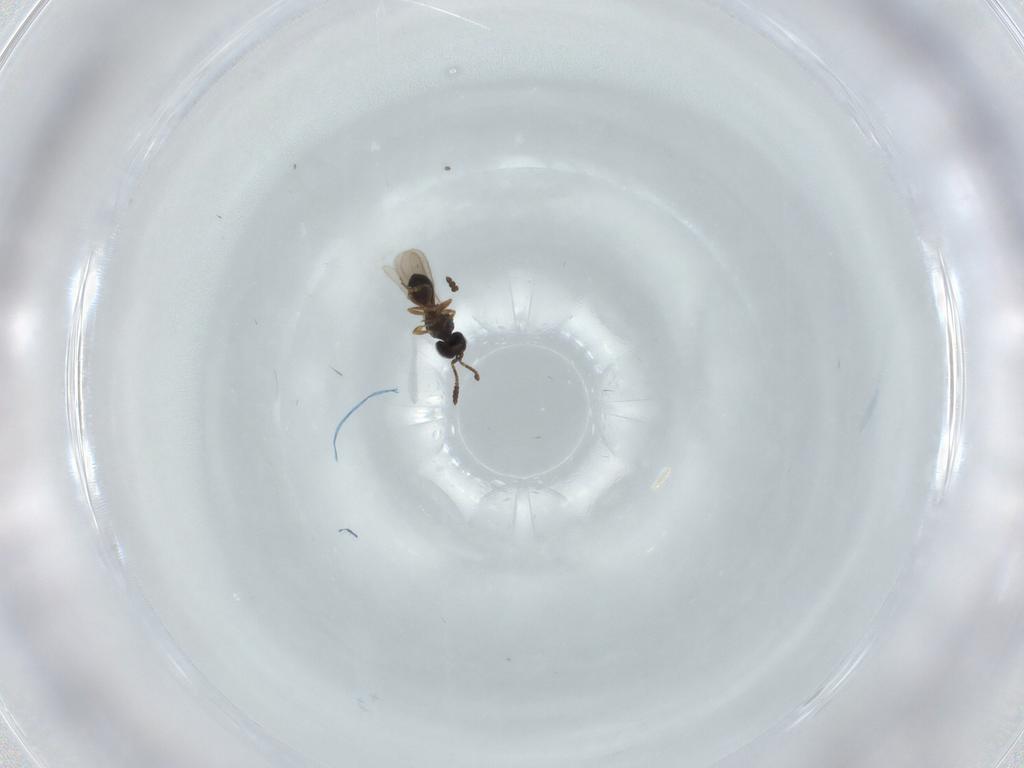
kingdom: Animalia
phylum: Arthropoda
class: Insecta
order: Hymenoptera
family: Scelionidae
